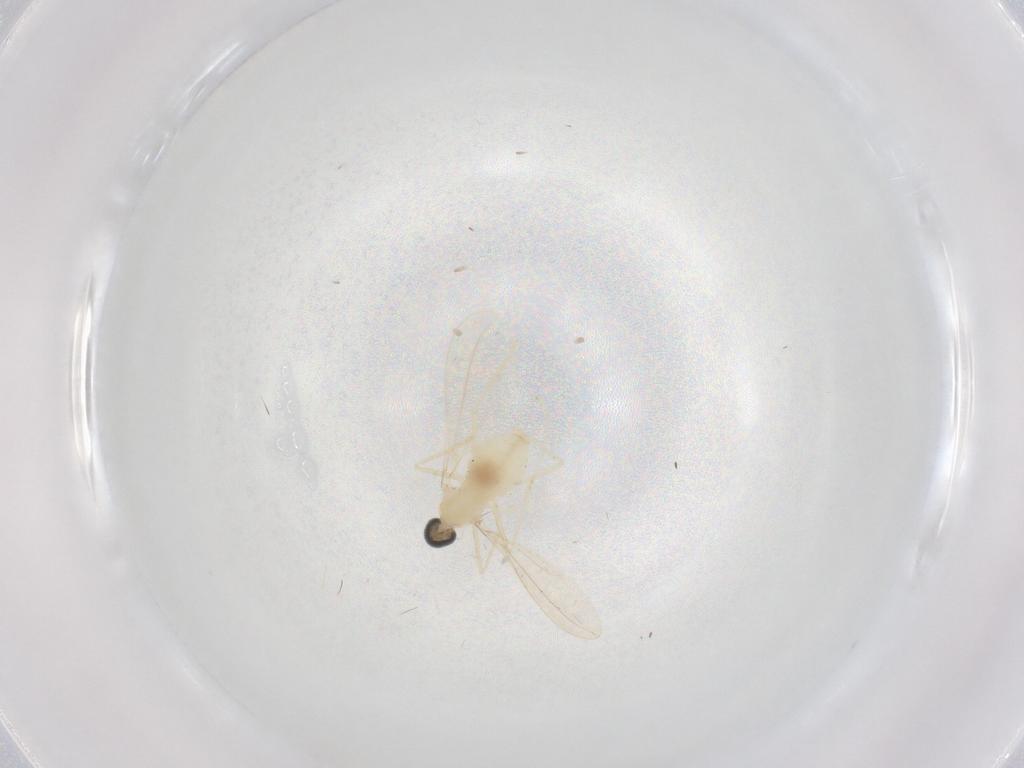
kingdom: Animalia
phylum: Arthropoda
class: Insecta
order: Diptera
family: Cecidomyiidae
